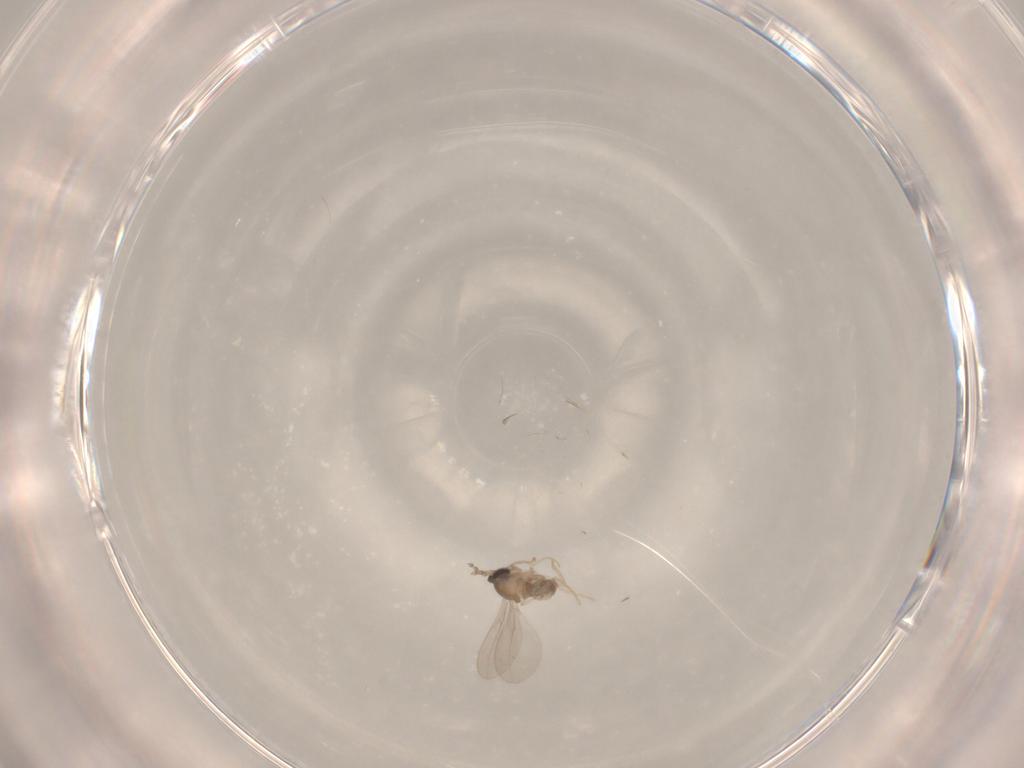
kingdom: Animalia
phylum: Arthropoda
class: Insecta
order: Diptera
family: Cecidomyiidae
